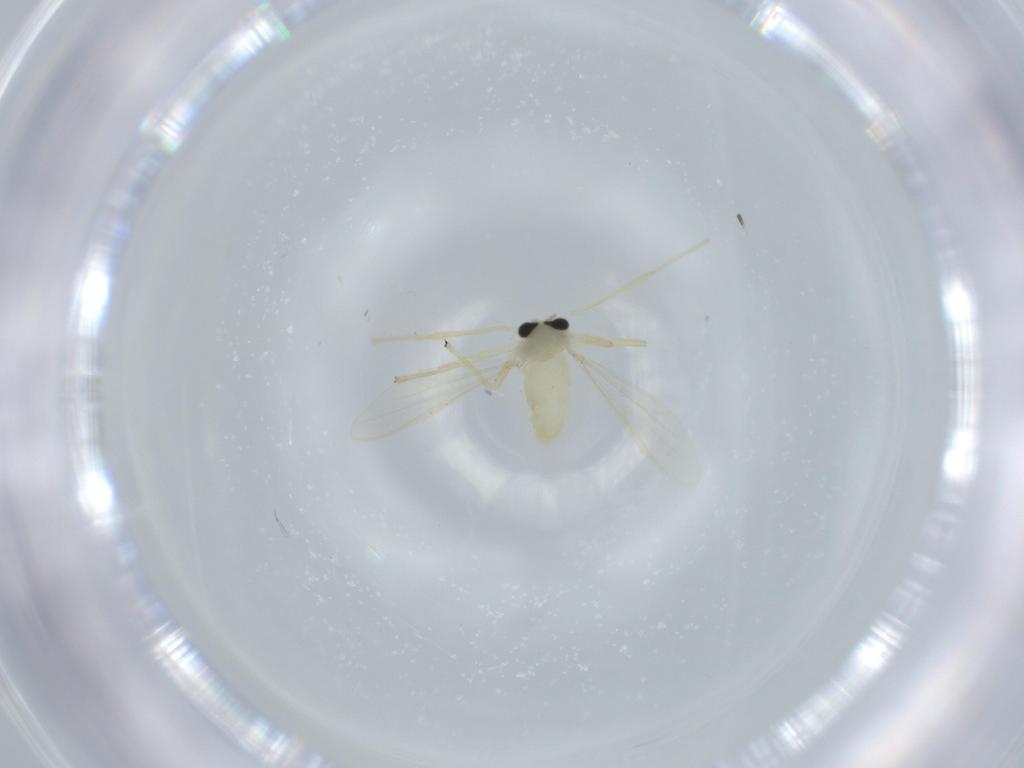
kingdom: Animalia
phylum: Arthropoda
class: Insecta
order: Diptera
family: Chironomidae
